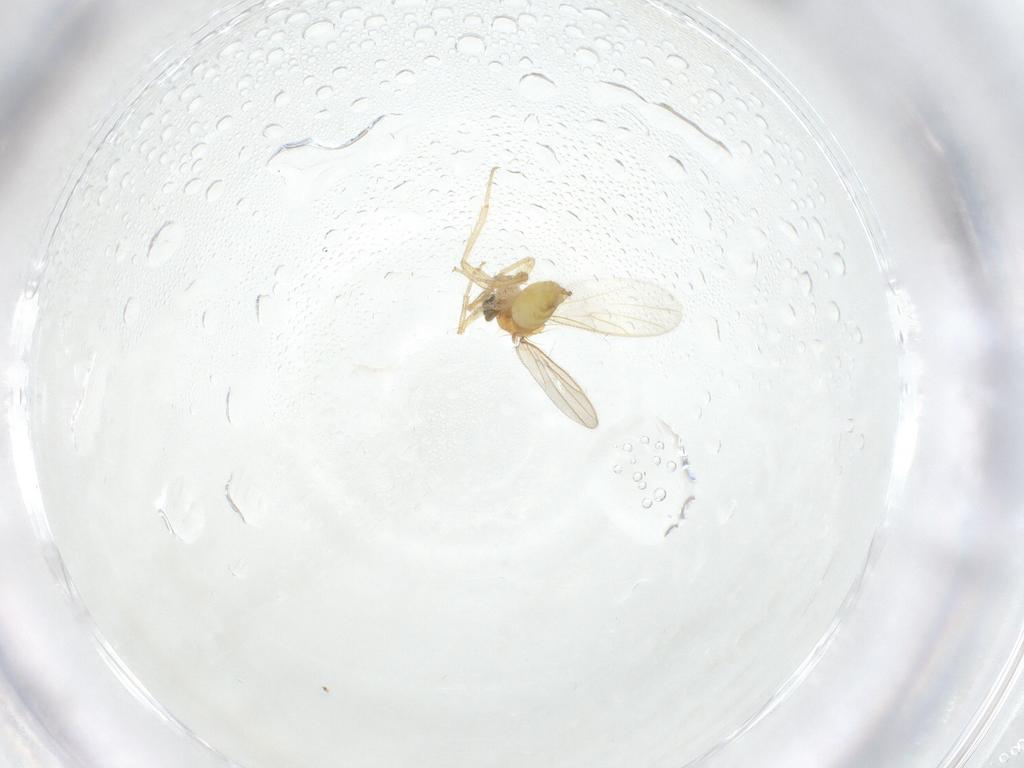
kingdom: Animalia
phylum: Arthropoda
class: Insecta
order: Diptera
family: Hybotidae
